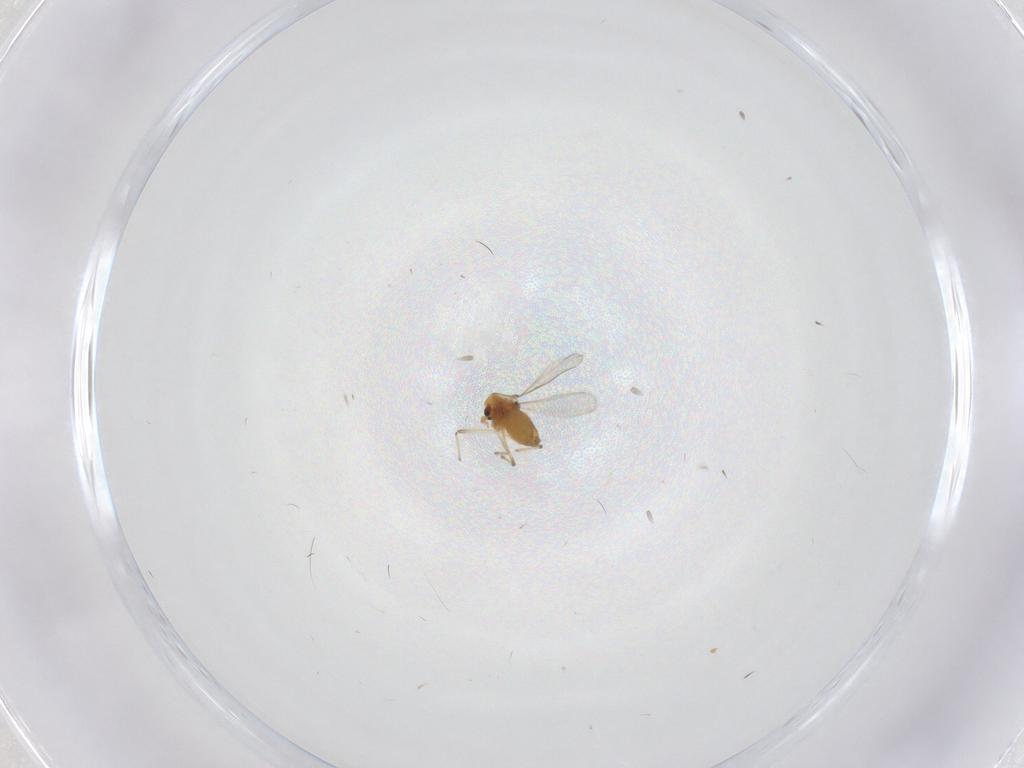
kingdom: Animalia
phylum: Arthropoda
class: Insecta
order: Diptera
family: Chironomidae
